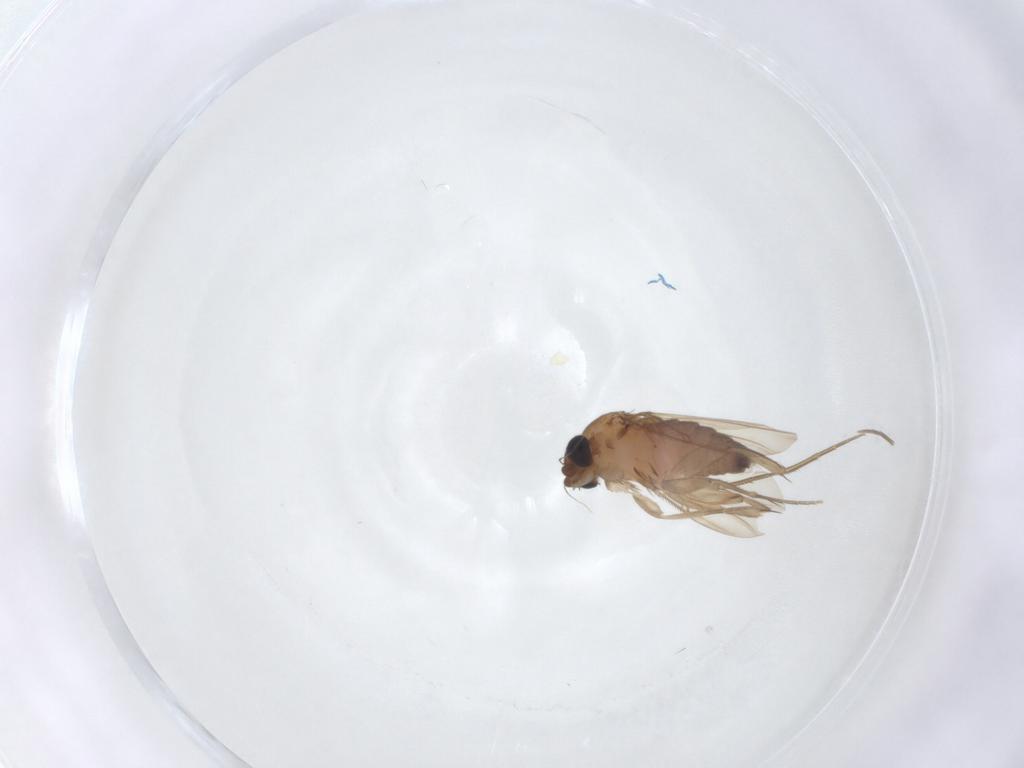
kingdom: Animalia
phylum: Arthropoda
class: Insecta
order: Diptera
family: Phoridae
